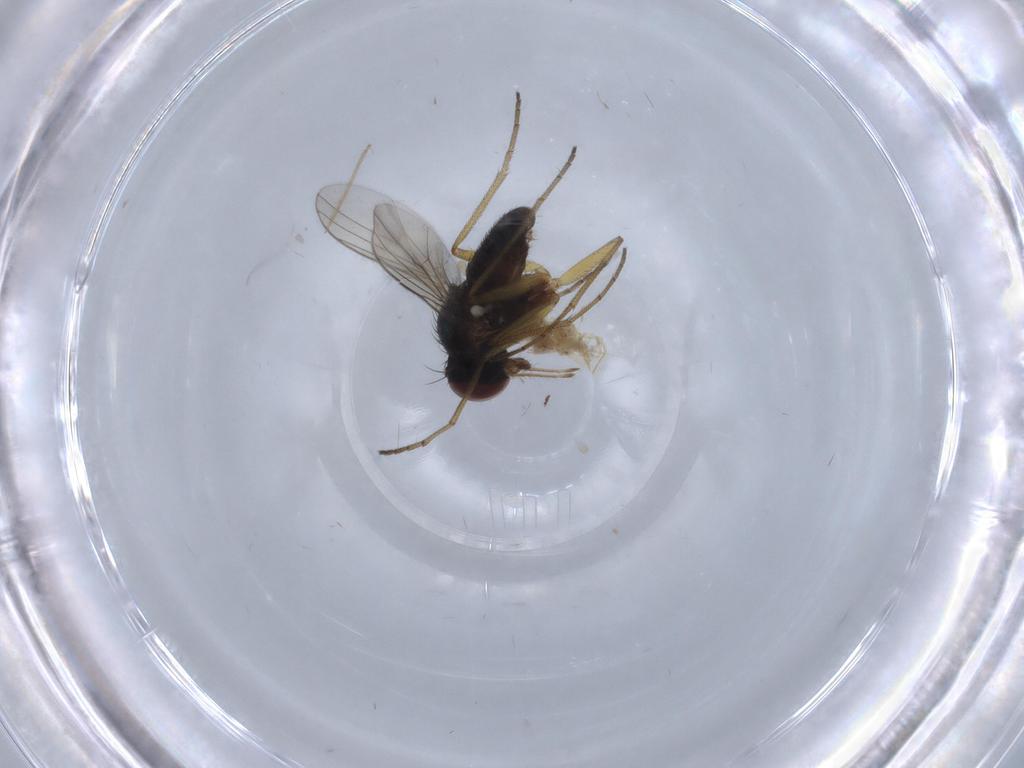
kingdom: Animalia
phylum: Arthropoda
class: Insecta
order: Diptera
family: Dolichopodidae
